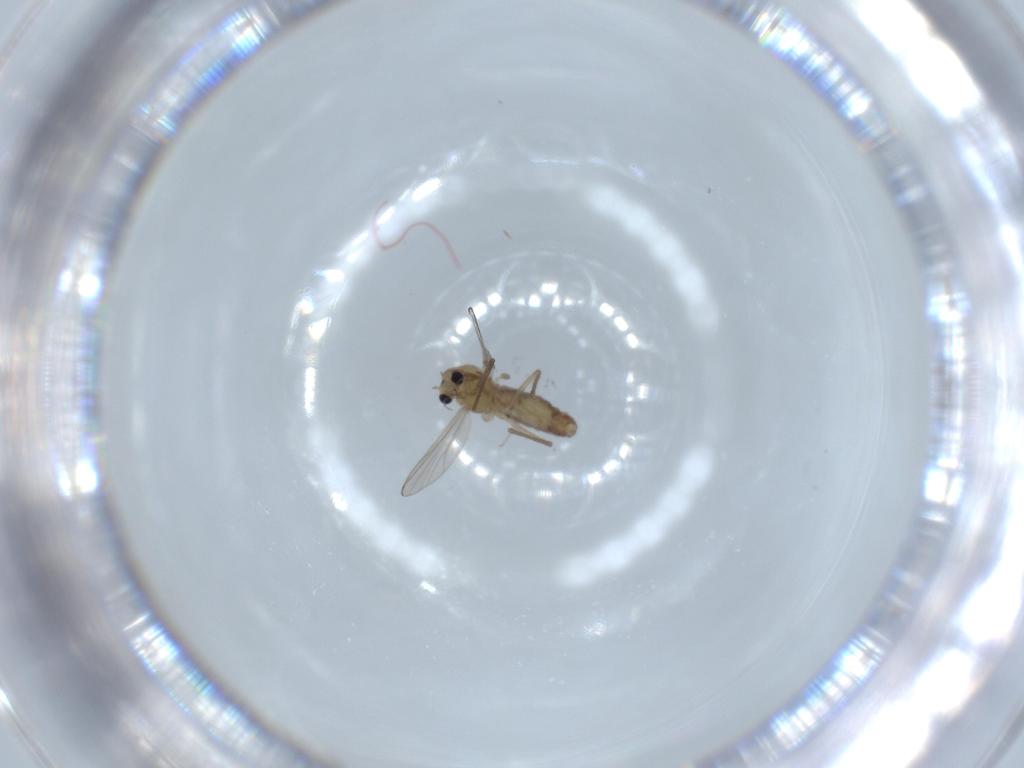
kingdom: Animalia
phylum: Arthropoda
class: Insecta
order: Diptera
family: Chironomidae
